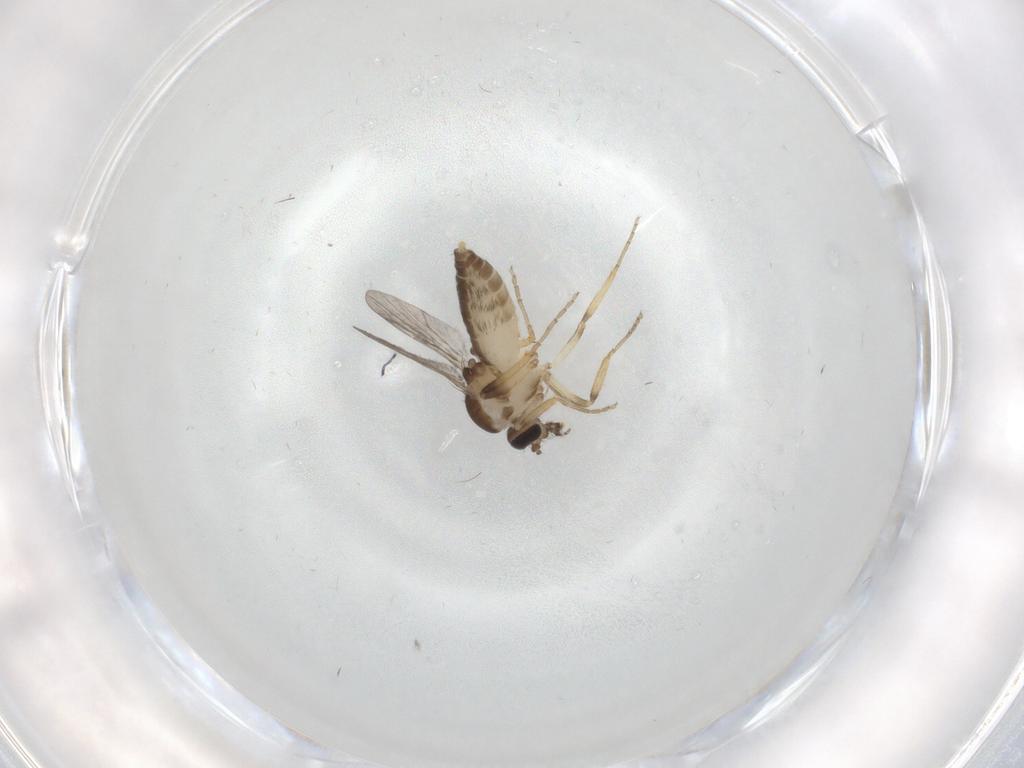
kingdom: Animalia
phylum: Arthropoda
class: Insecta
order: Diptera
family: Ceratopogonidae
